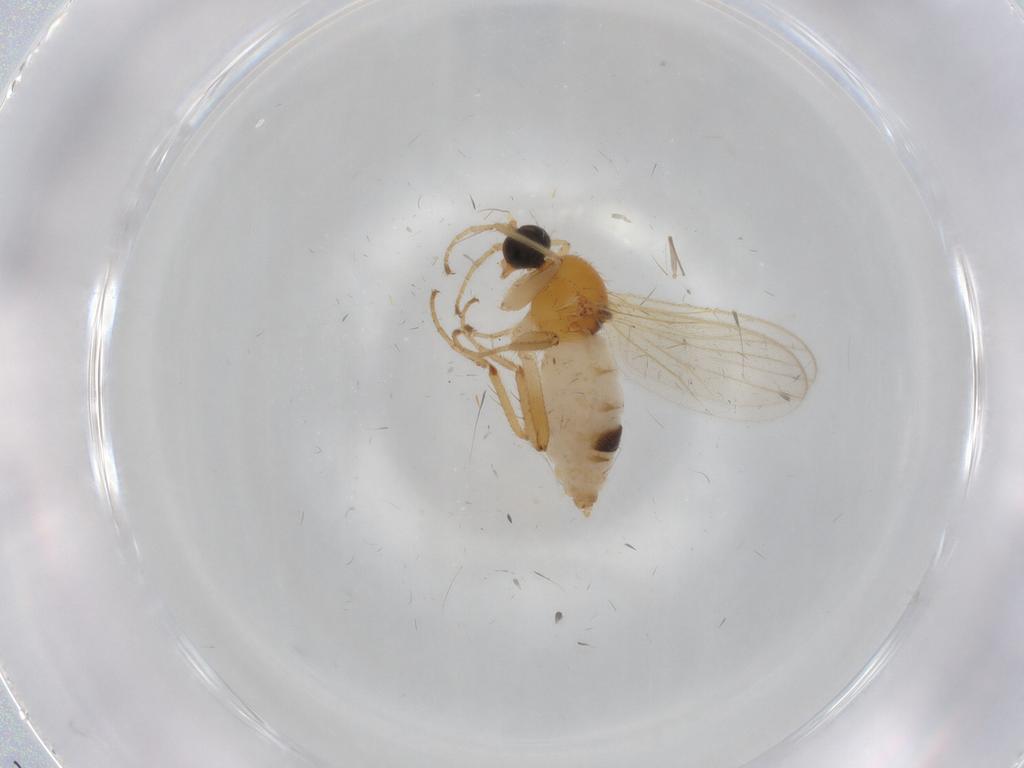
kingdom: Animalia
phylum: Arthropoda
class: Insecta
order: Diptera
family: Hybotidae
